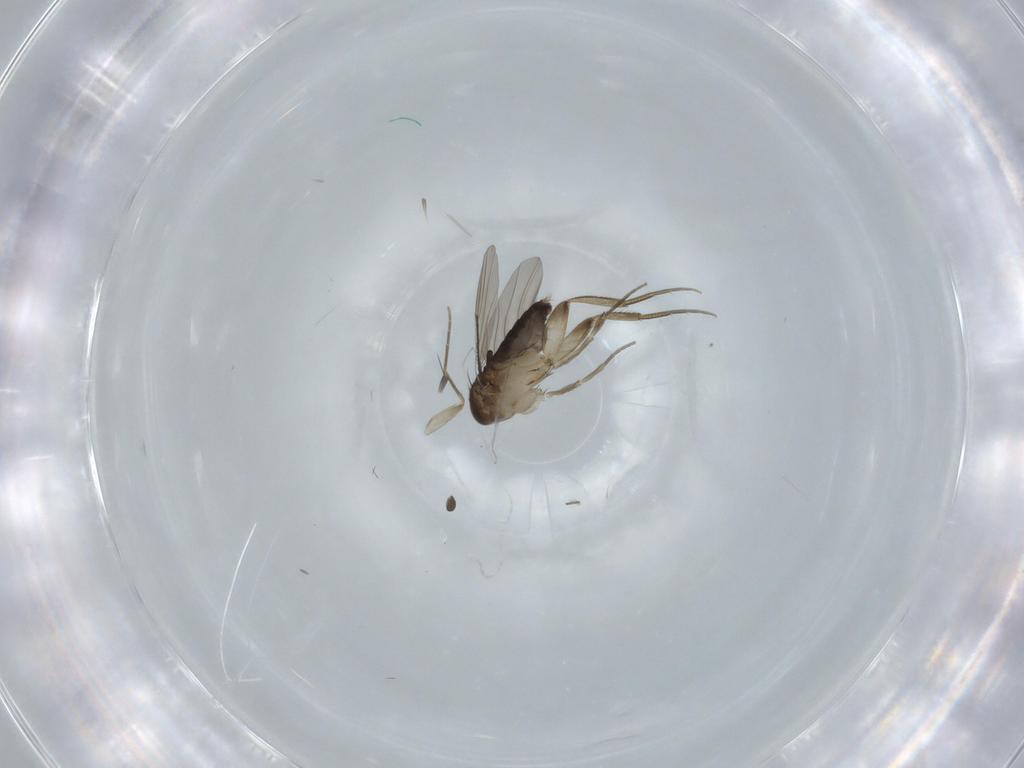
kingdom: Animalia
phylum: Arthropoda
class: Insecta
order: Diptera
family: Phoridae
